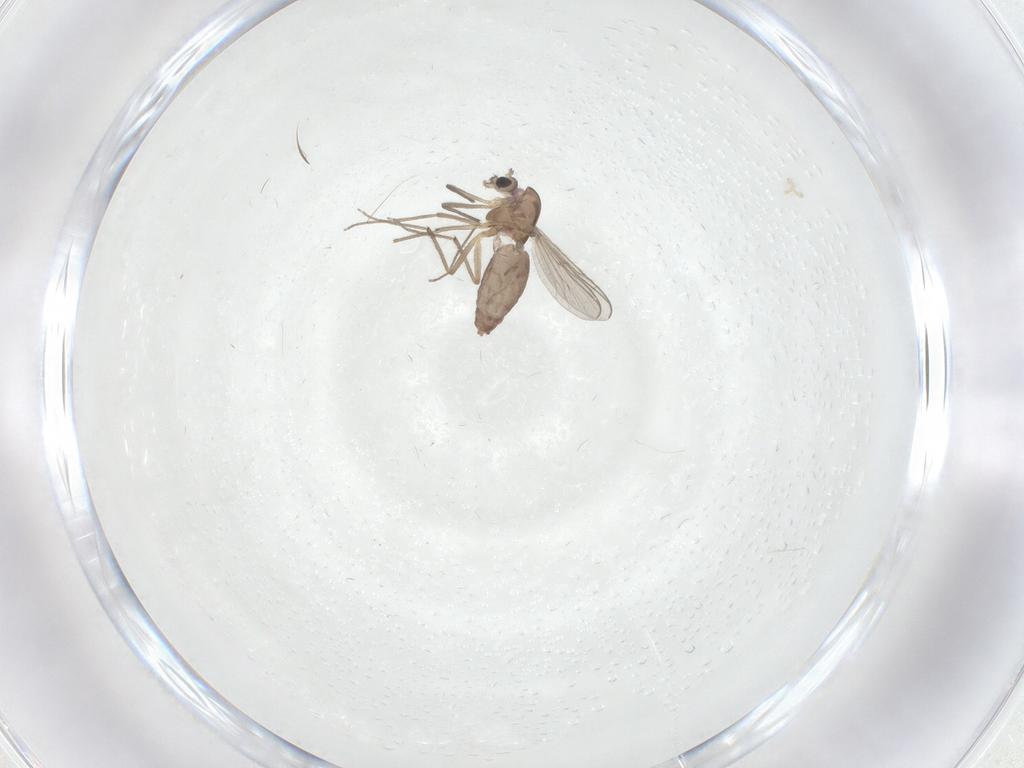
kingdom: Animalia
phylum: Arthropoda
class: Insecta
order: Diptera
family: Chironomidae
